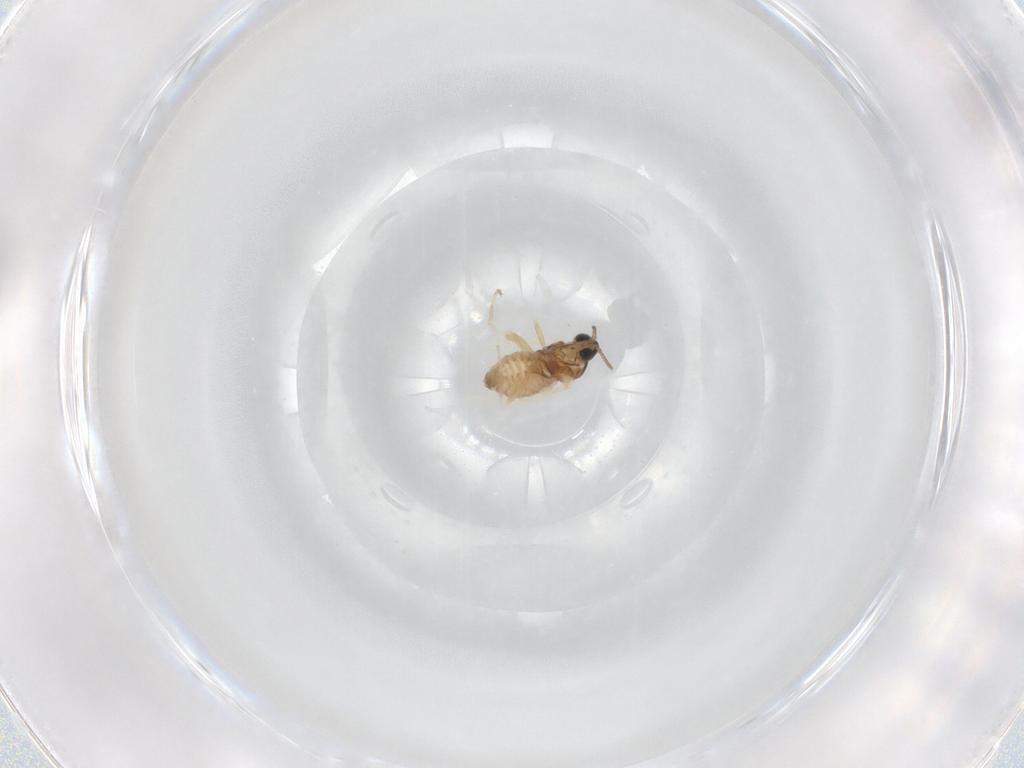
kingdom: Animalia
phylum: Arthropoda
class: Insecta
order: Diptera
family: Cecidomyiidae
